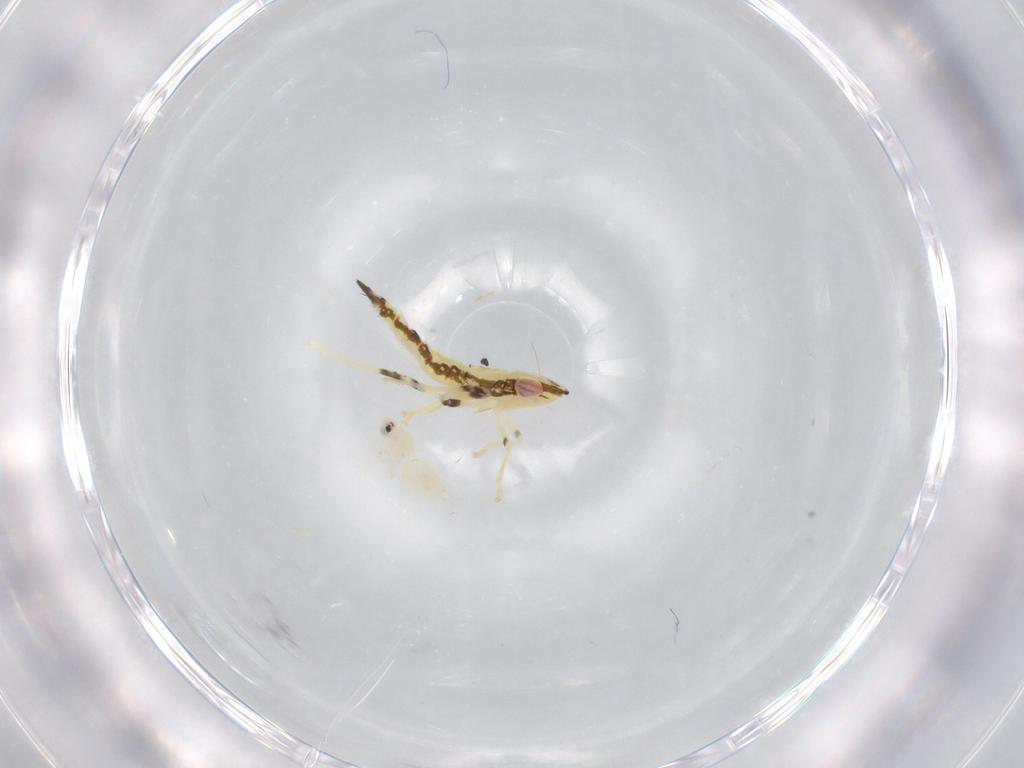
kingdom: Animalia
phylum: Arthropoda
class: Insecta
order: Hemiptera
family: Aleyrodidae
